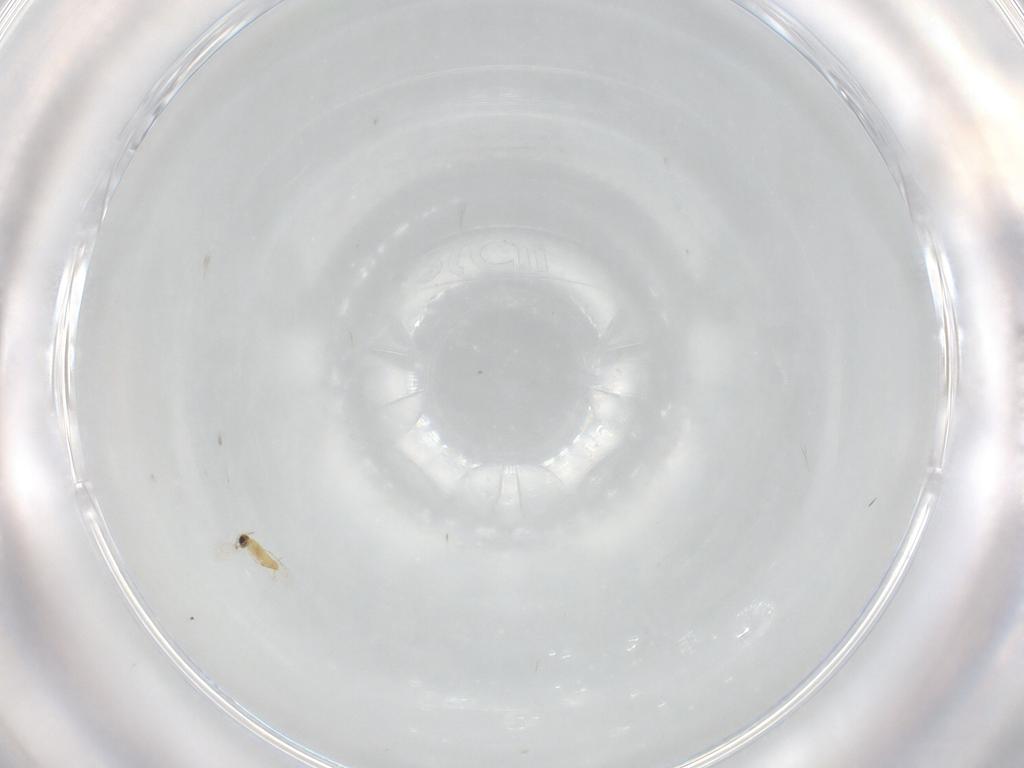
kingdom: Animalia
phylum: Arthropoda
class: Insecta
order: Hymenoptera
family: Trichogrammatidae
